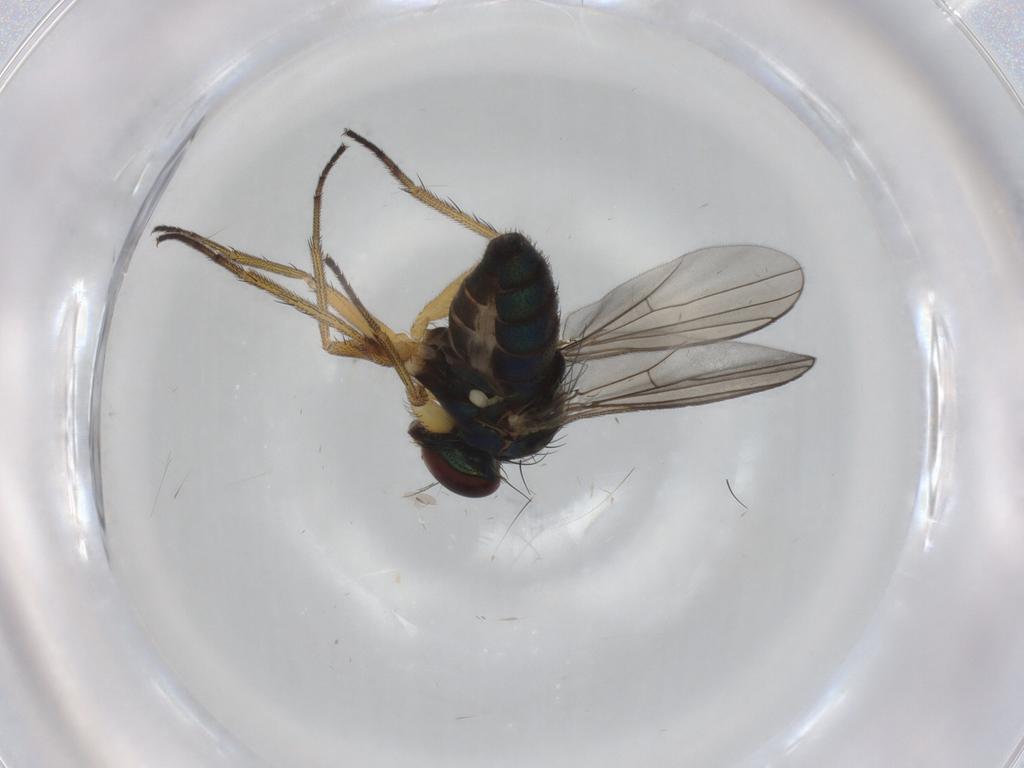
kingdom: Animalia
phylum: Arthropoda
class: Insecta
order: Diptera
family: Dolichopodidae
